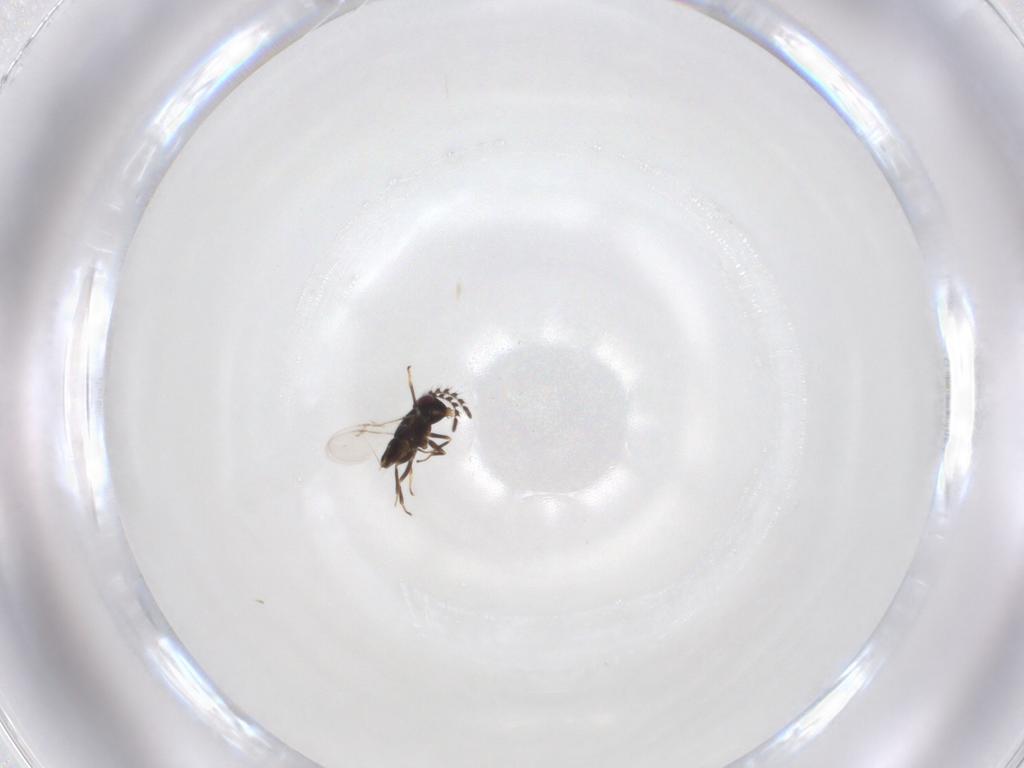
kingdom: Animalia
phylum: Arthropoda
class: Insecta
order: Hymenoptera
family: Encyrtidae
